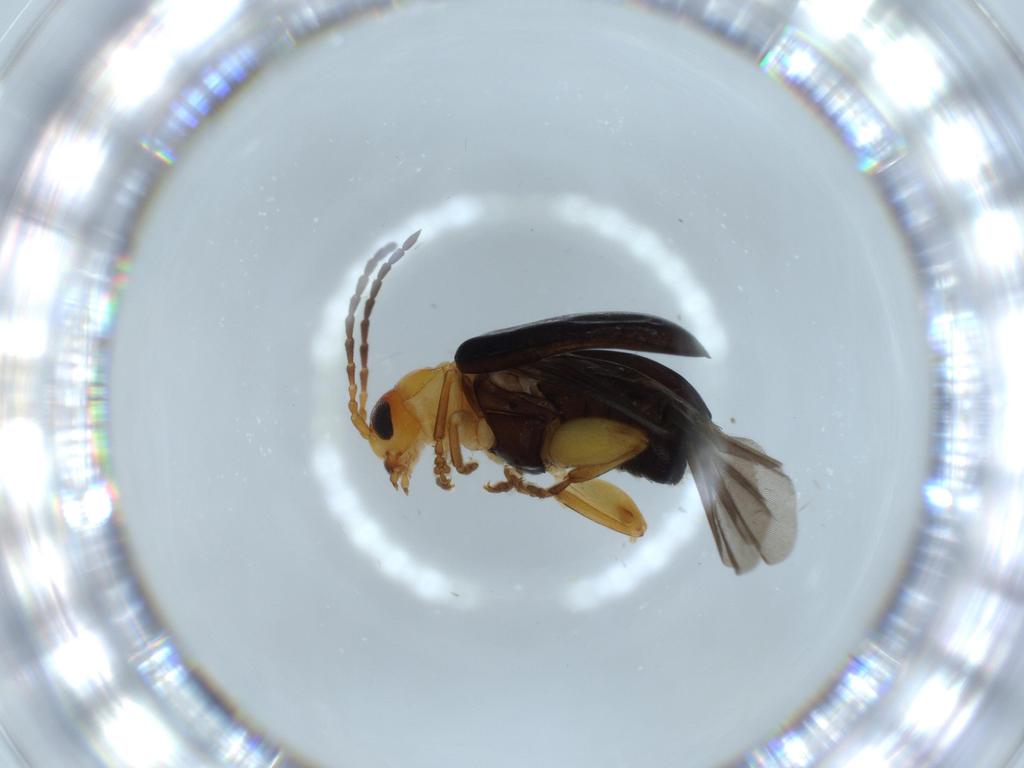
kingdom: Animalia
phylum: Arthropoda
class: Insecta
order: Coleoptera
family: Chrysomelidae
